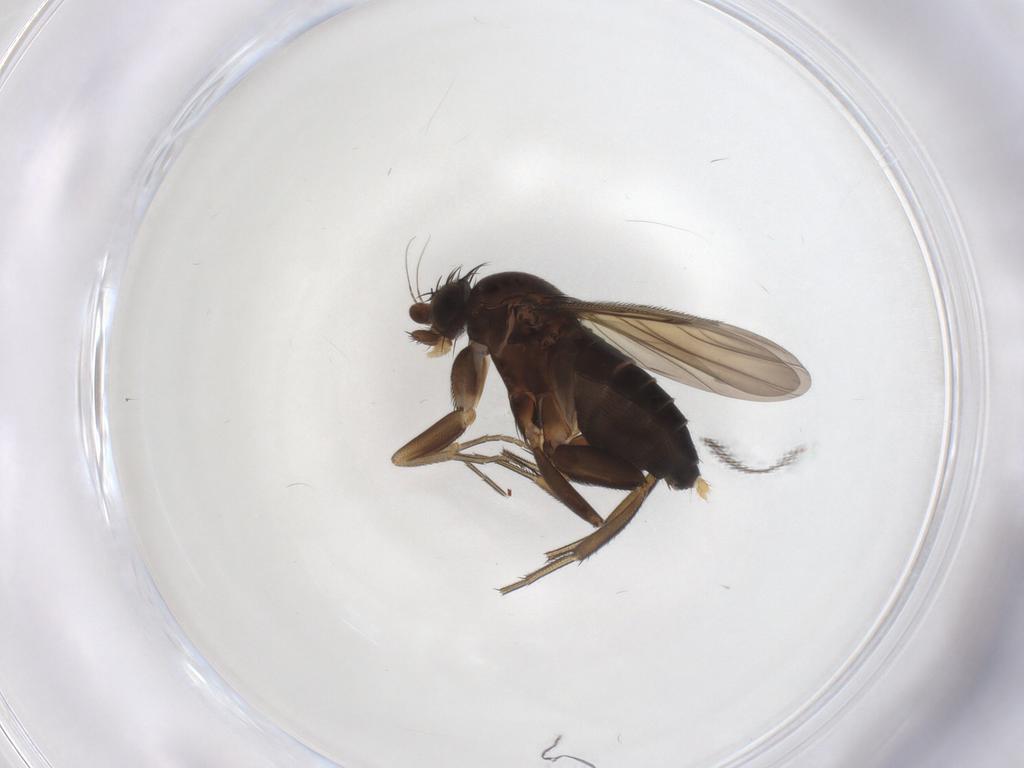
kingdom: Animalia
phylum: Arthropoda
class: Insecta
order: Diptera
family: Phoridae
